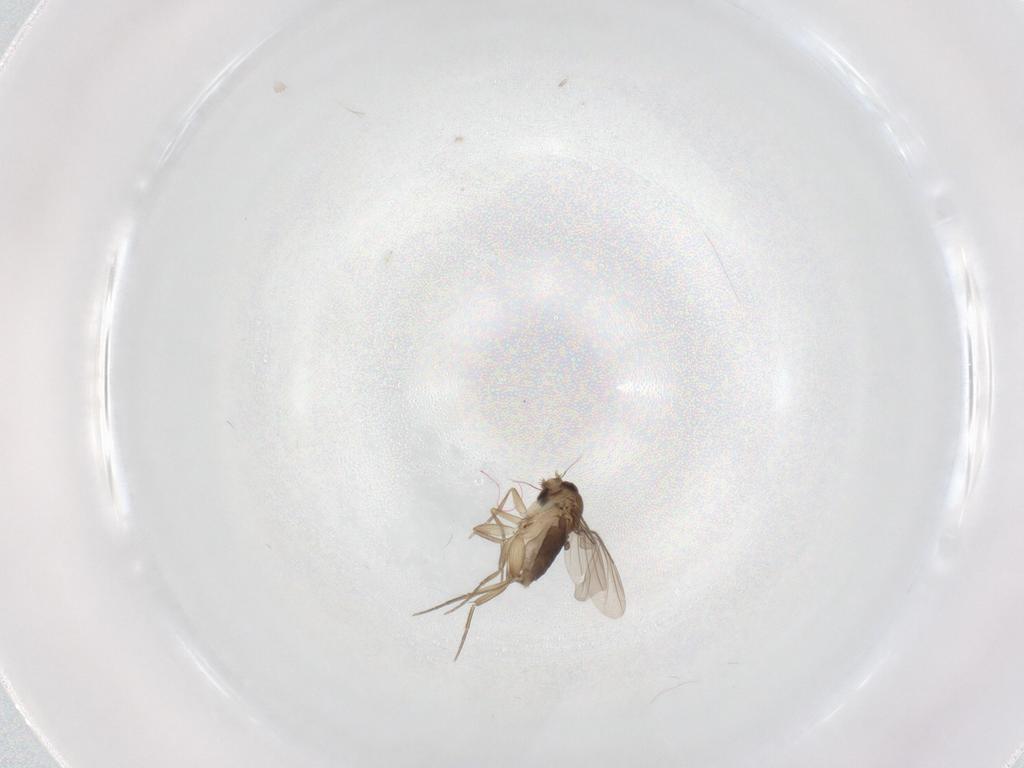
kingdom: Animalia
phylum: Arthropoda
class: Insecta
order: Diptera
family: Phoridae
